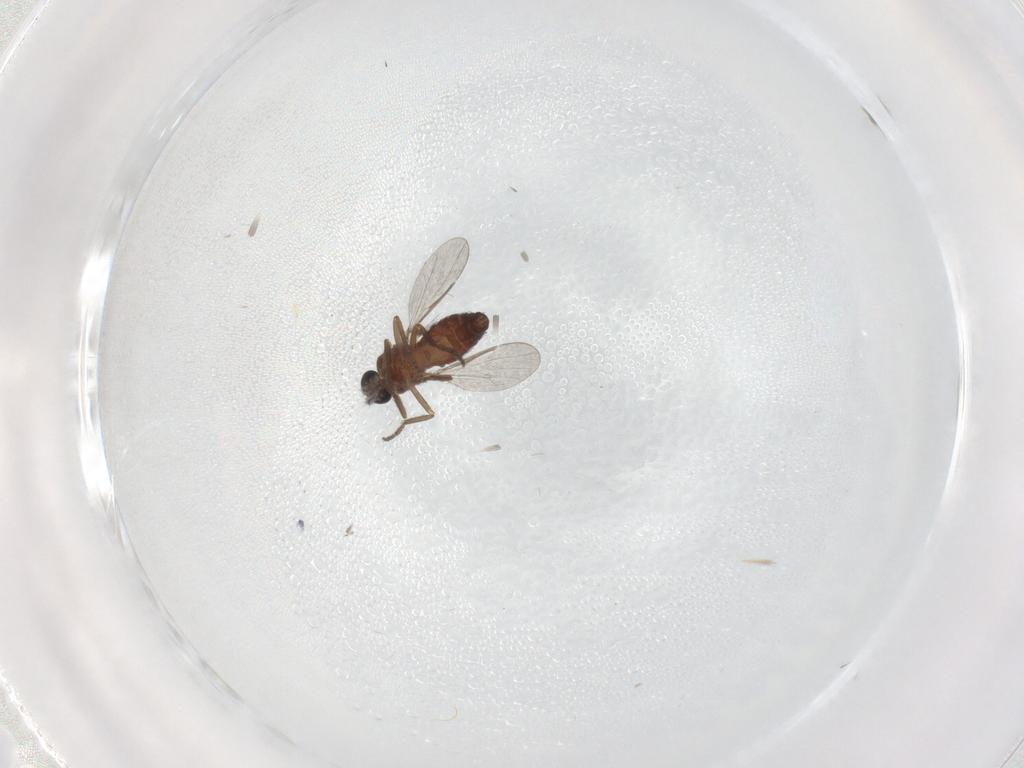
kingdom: Animalia
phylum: Arthropoda
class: Insecta
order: Diptera
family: Ceratopogonidae
